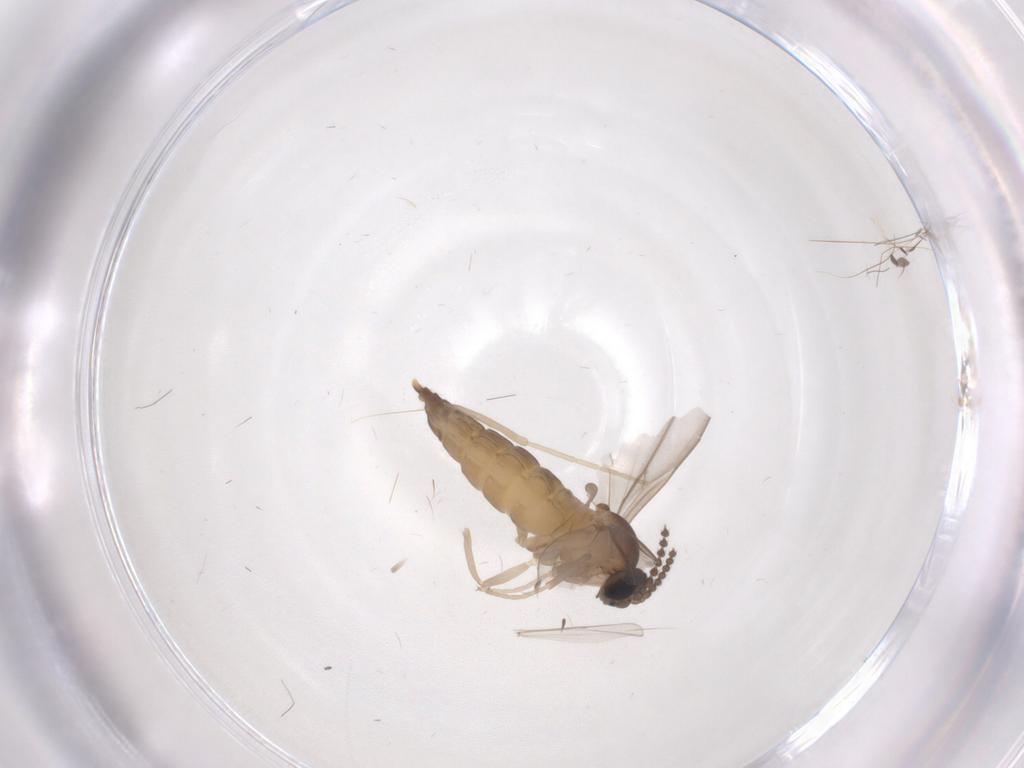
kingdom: Animalia
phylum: Arthropoda
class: Insecta
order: Diptera
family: Cecidomyiidae
